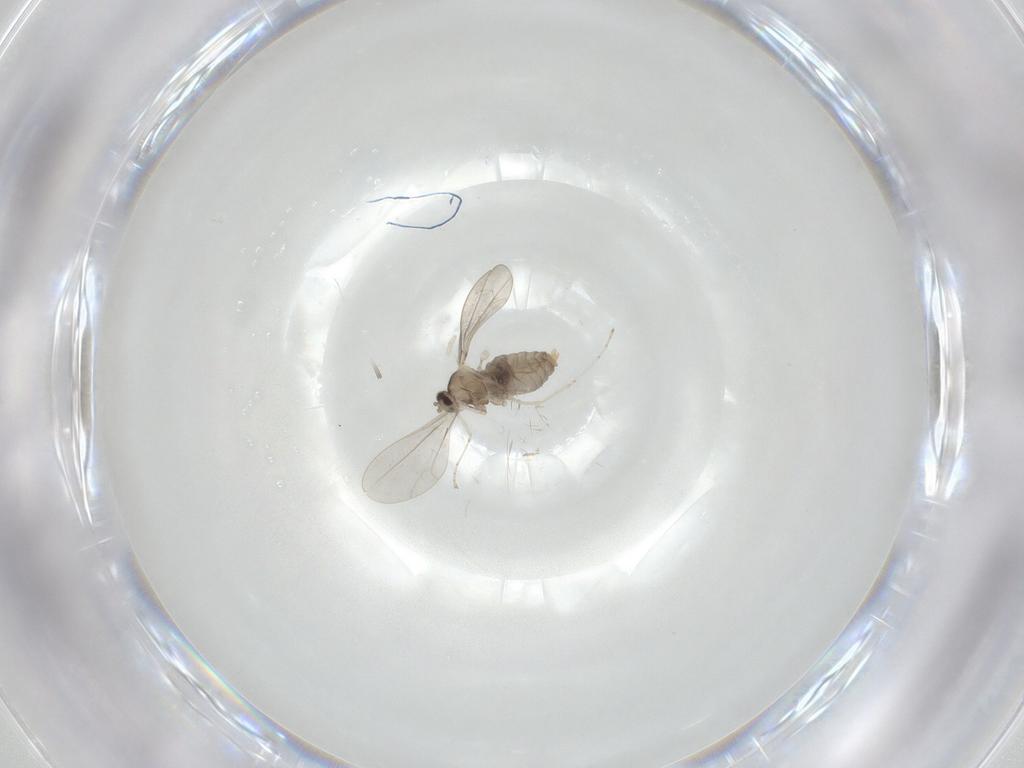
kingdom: Animalia
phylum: Arthropoda
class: Insecta
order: Diptera
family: Cecidomyiidae
